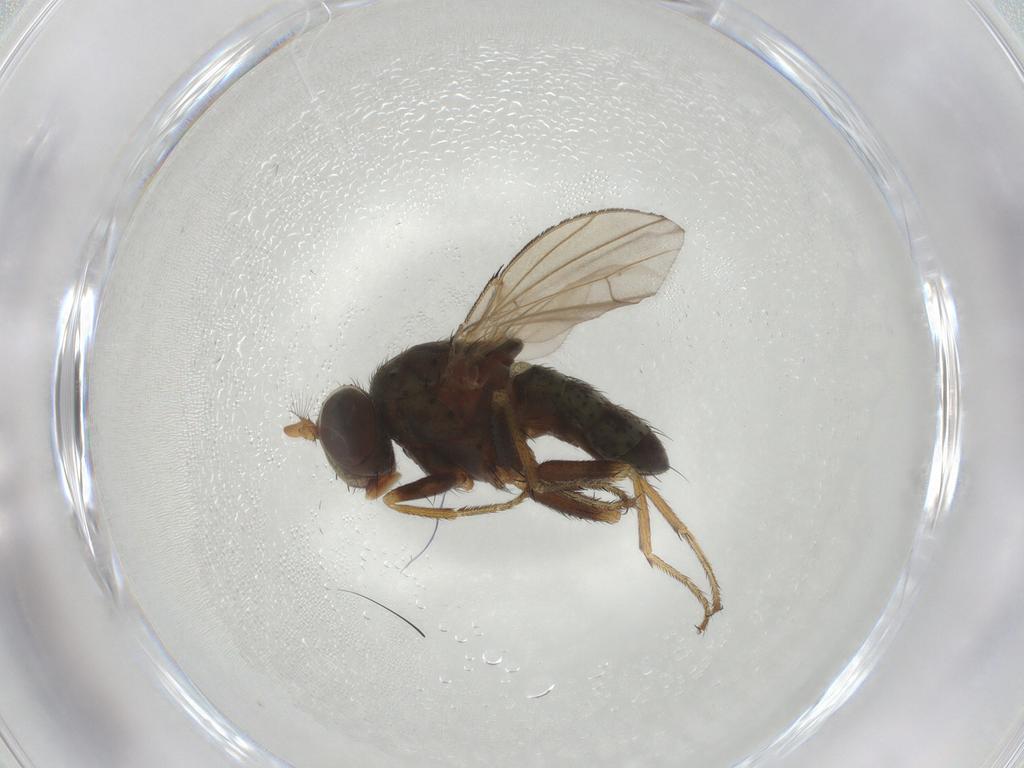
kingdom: Animalia
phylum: Arthropoda
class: Insecta
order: Diptera
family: Ephydridae
